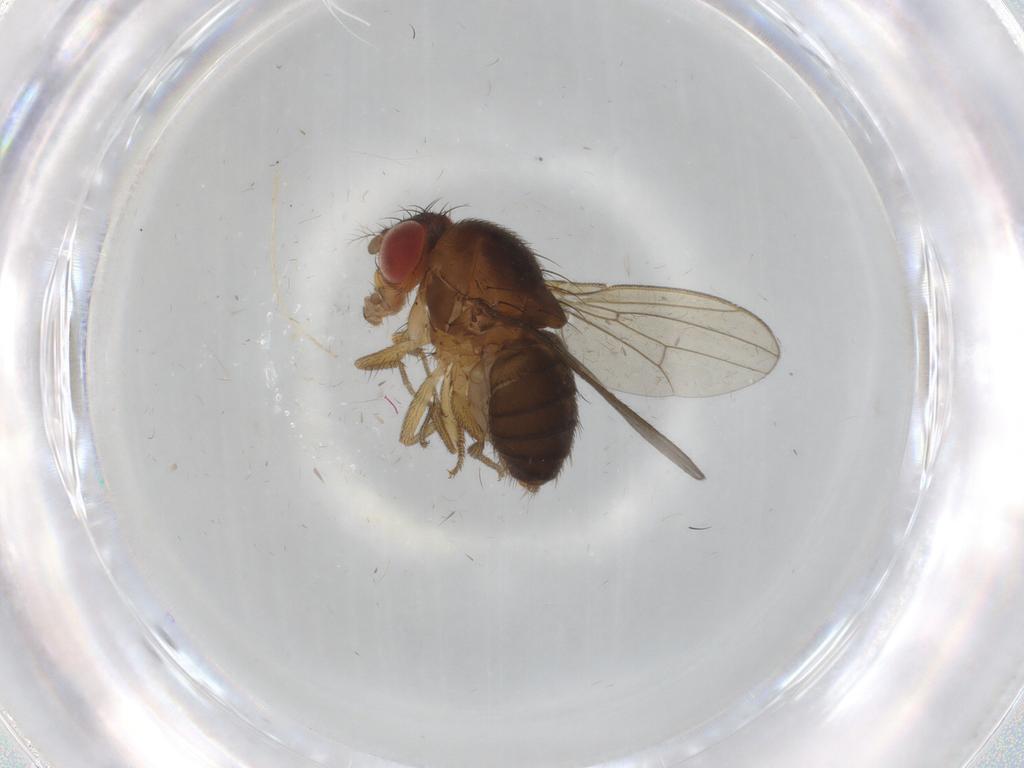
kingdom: Animalia
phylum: Arthropoda
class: Insecta
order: Diptera
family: Drosophilidae
